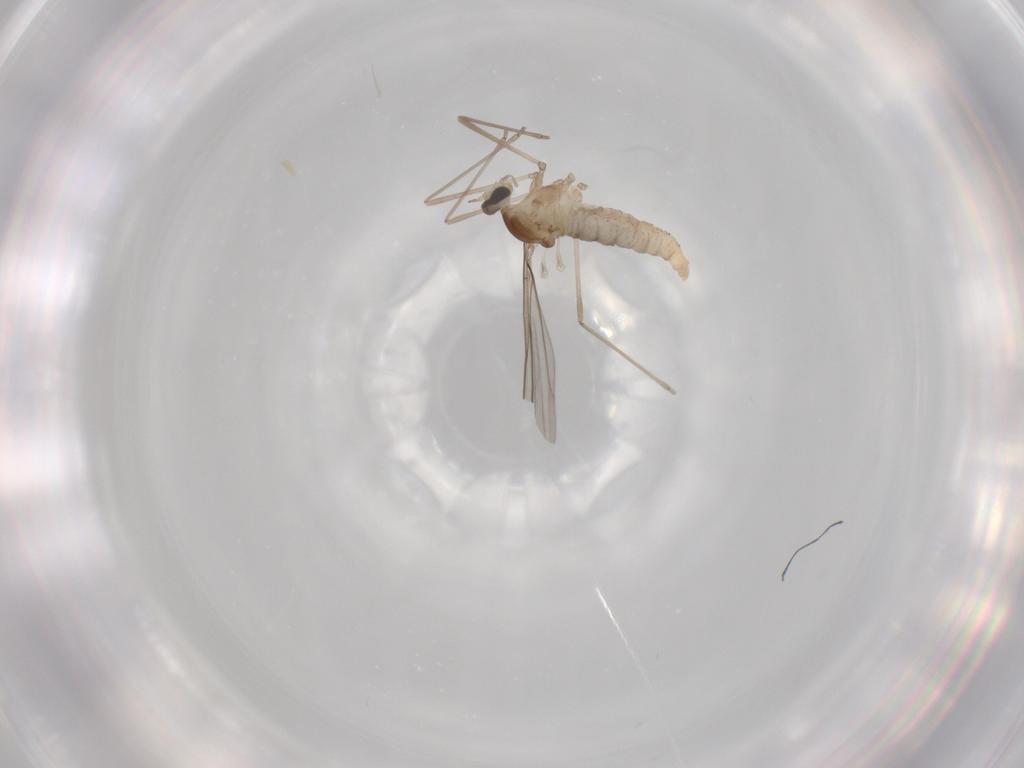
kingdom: Animalia
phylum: Arthropoda
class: Insecta
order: Diptera
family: Cecidomyiidae
